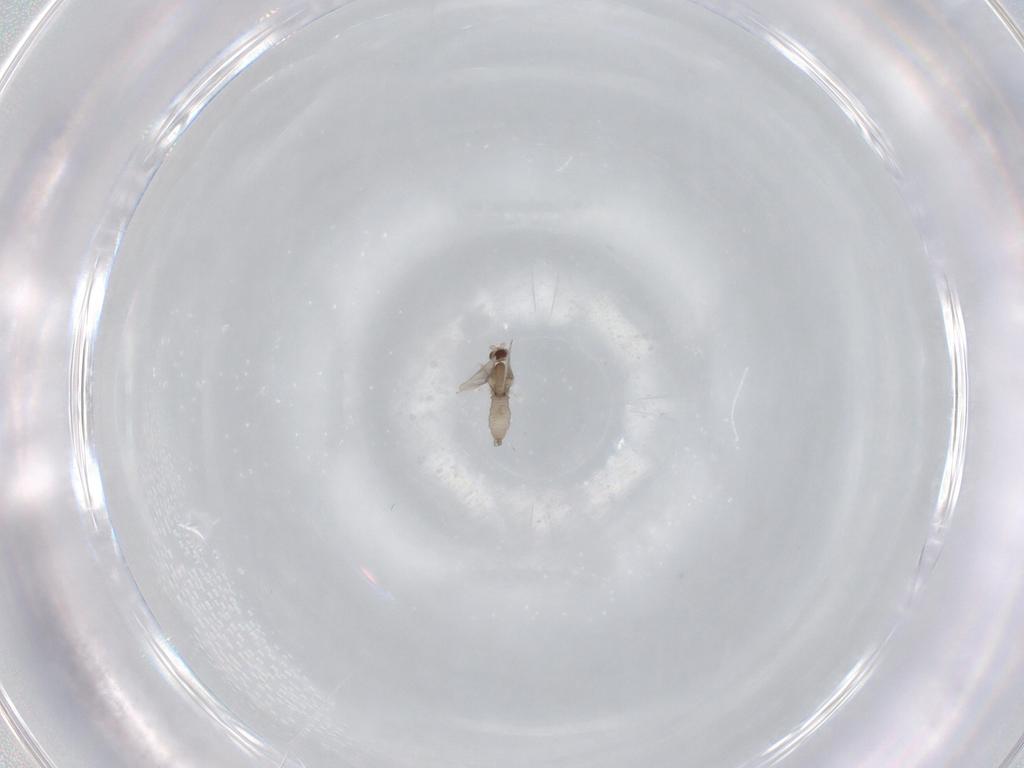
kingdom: Animalia
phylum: Arthropoda
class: Insecta
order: Diptera
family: Cecidomyiidae
